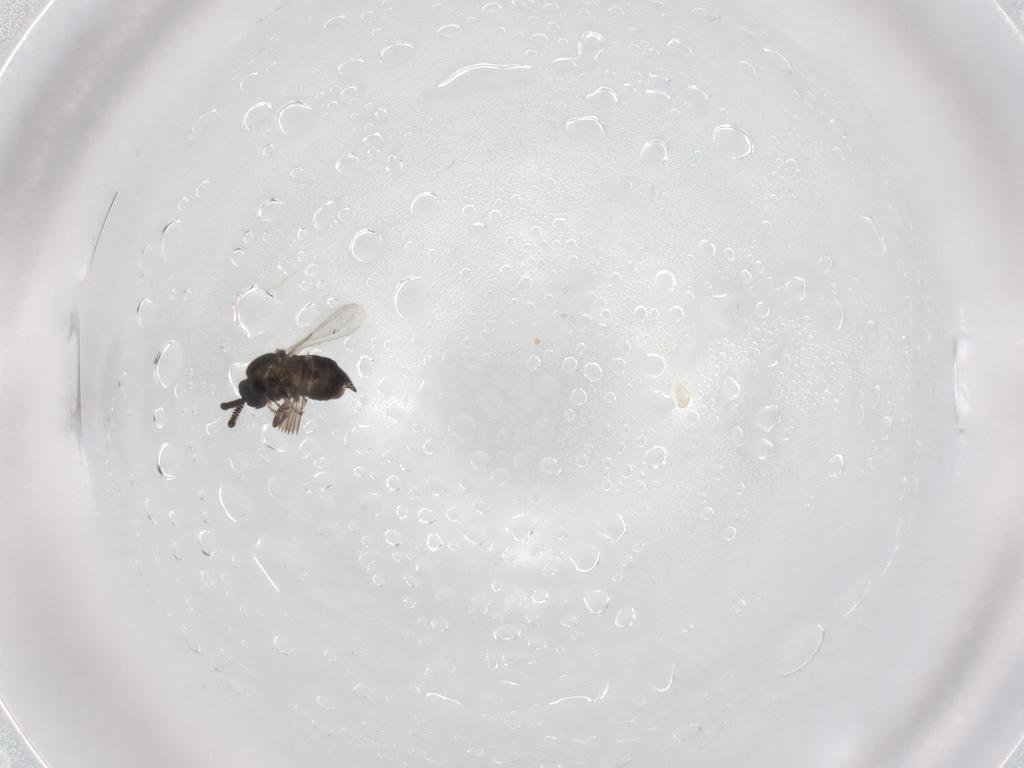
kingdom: Animalia
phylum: Arthropoda
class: Insecta
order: Diptera
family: Scatopsidae
